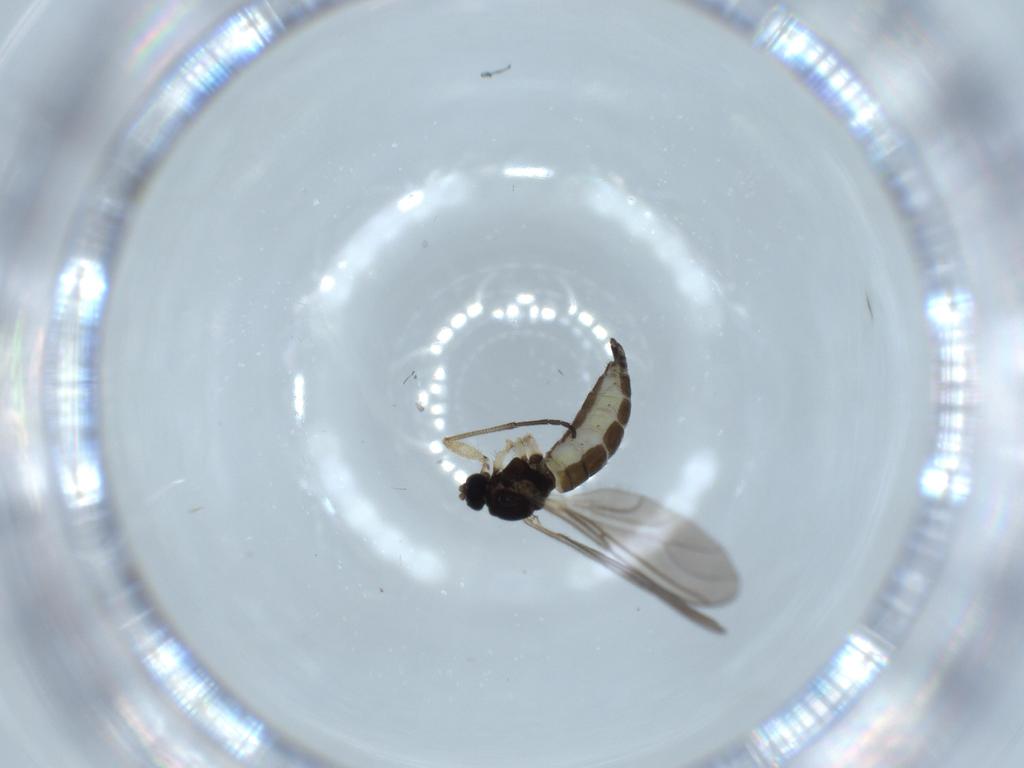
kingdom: Animalia
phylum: Arthropoda
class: Insecta
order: Diptera
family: Sciaridae
